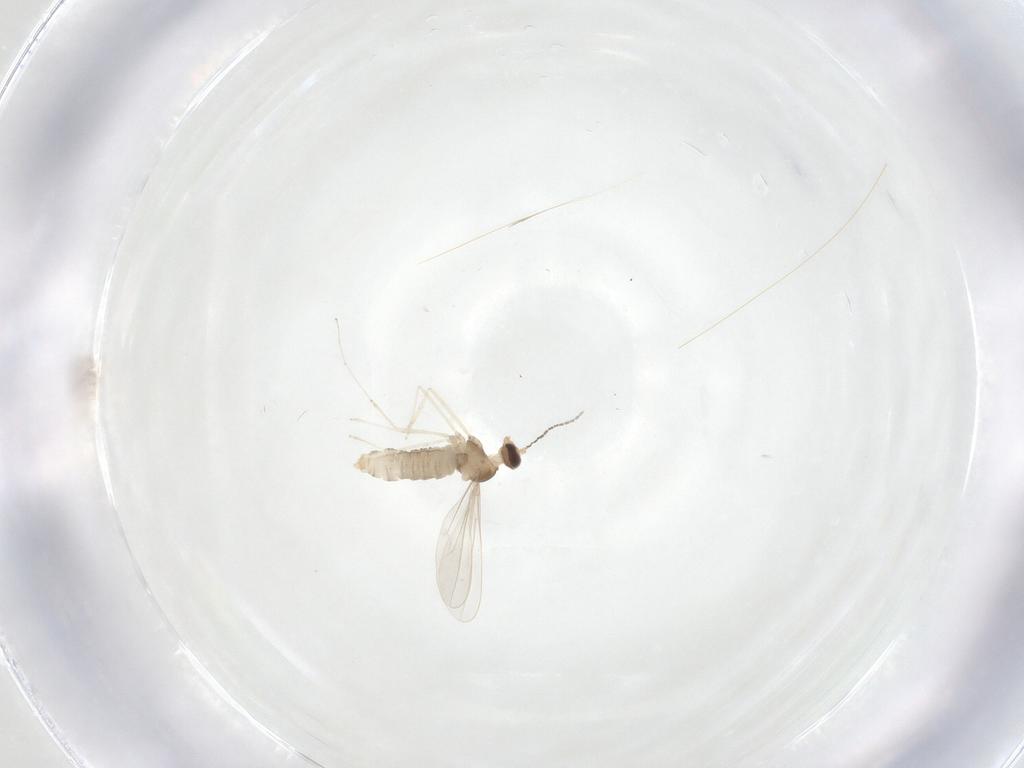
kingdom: Animalia
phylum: Arthropoda
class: Insecta
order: Diptera
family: Cecidomyiidae
